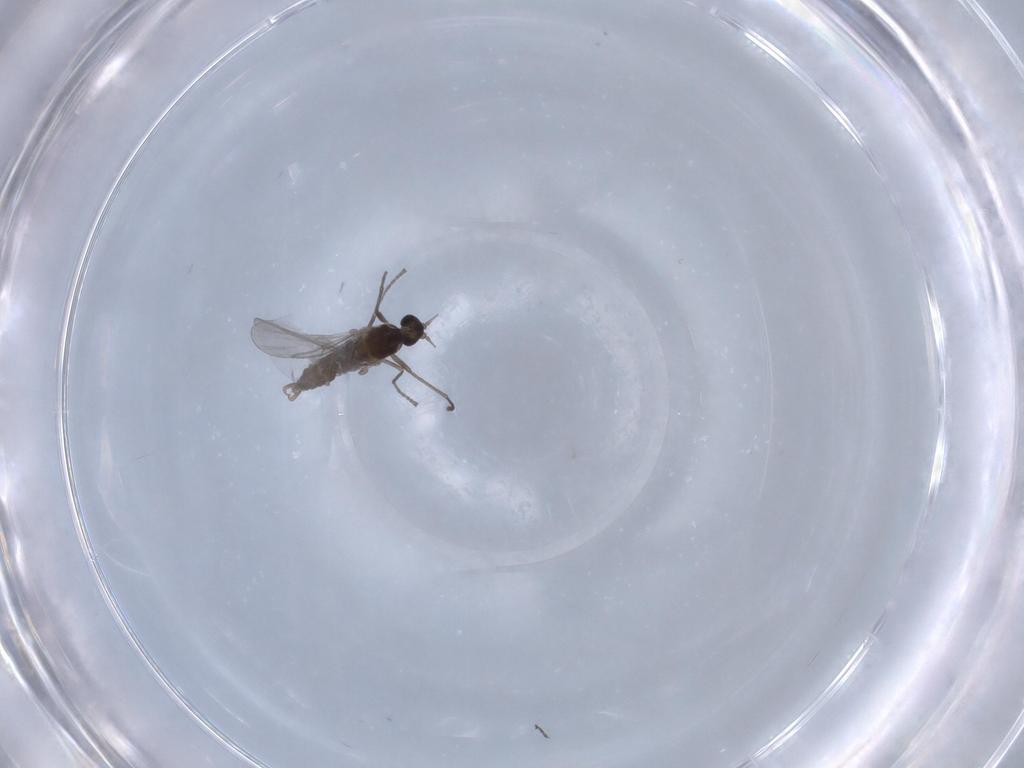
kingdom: Animalia
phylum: Arthropoda
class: Insecta
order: Diptera
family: Cecidomyiidae
